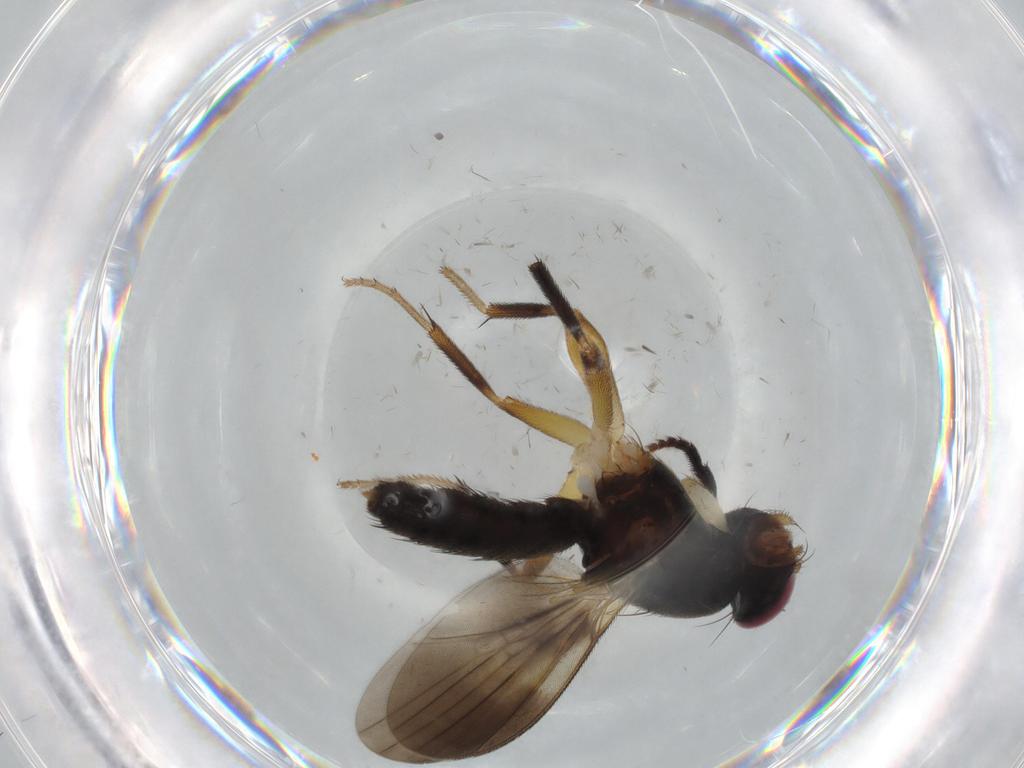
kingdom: Animalia
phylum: Arthropoda
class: Insecta
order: Diptera
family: Clusiidae
